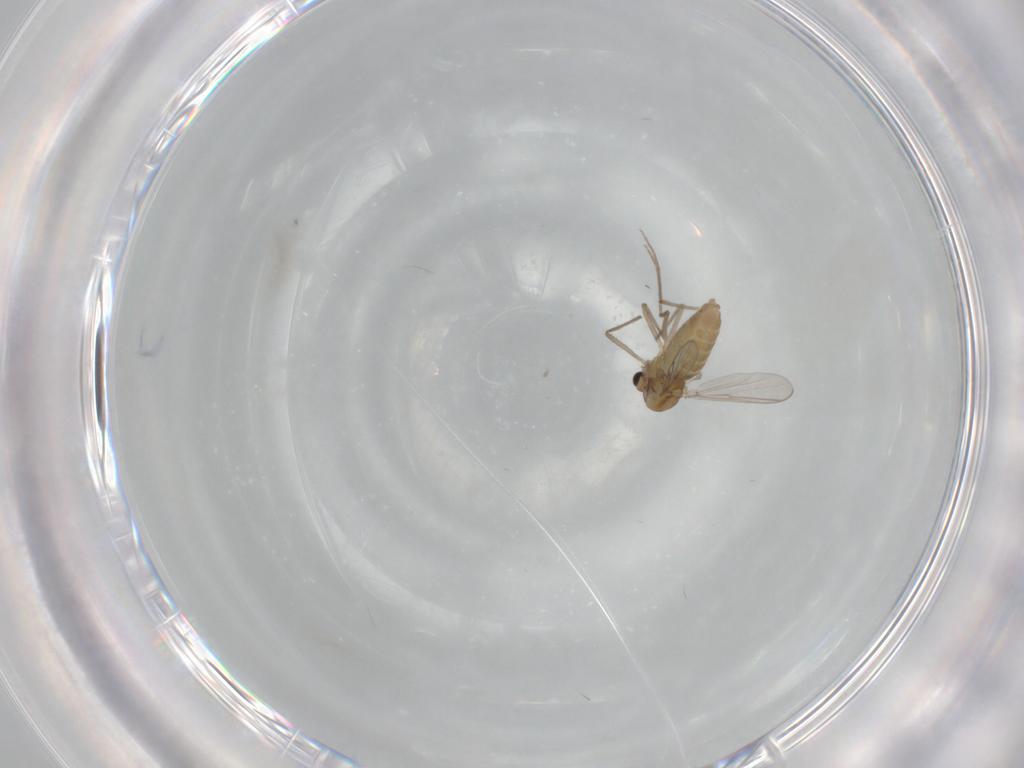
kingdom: Animalia
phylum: Arthropoda
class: Insecta
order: Diptera
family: Chironomidae
